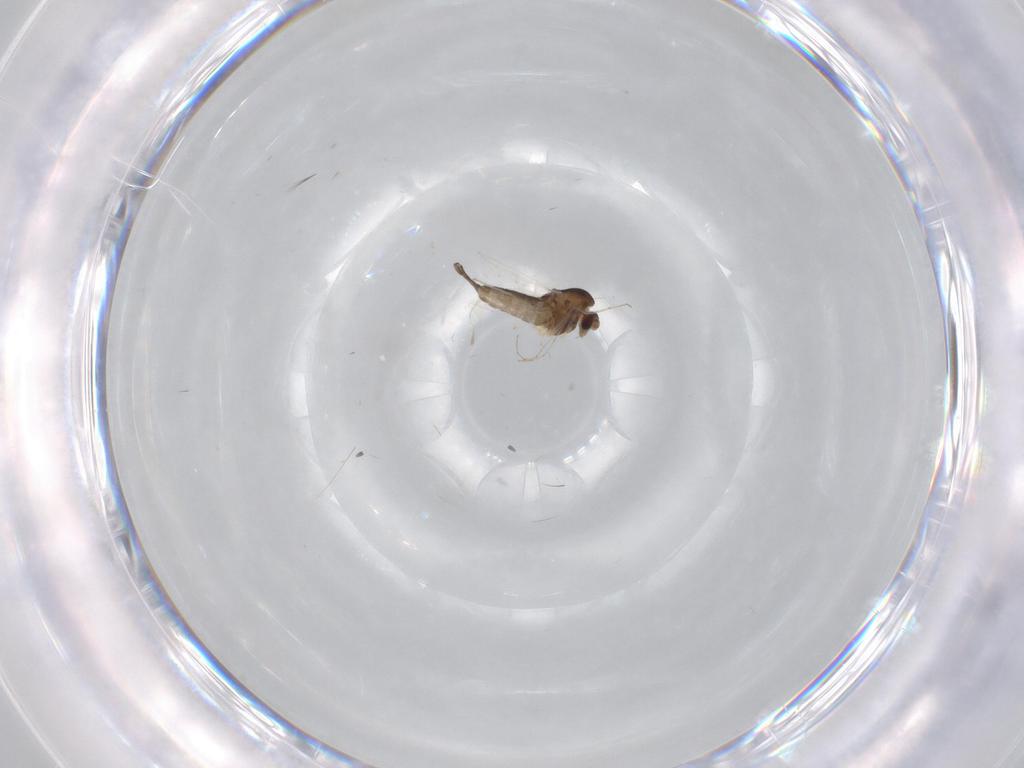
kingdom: Animalia
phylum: Arthropoda
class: Insecta
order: Diptera
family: Chironomidae
